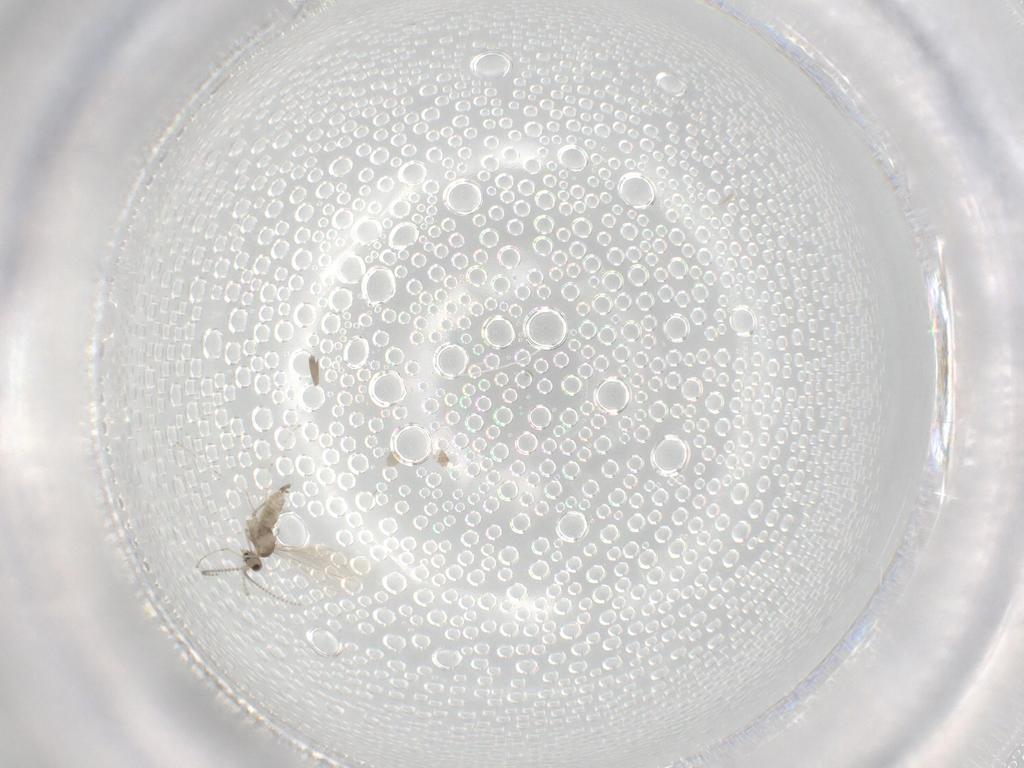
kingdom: Animalia
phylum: Arthropoda
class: Insecta
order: Diptera
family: Cecidomyiidae
